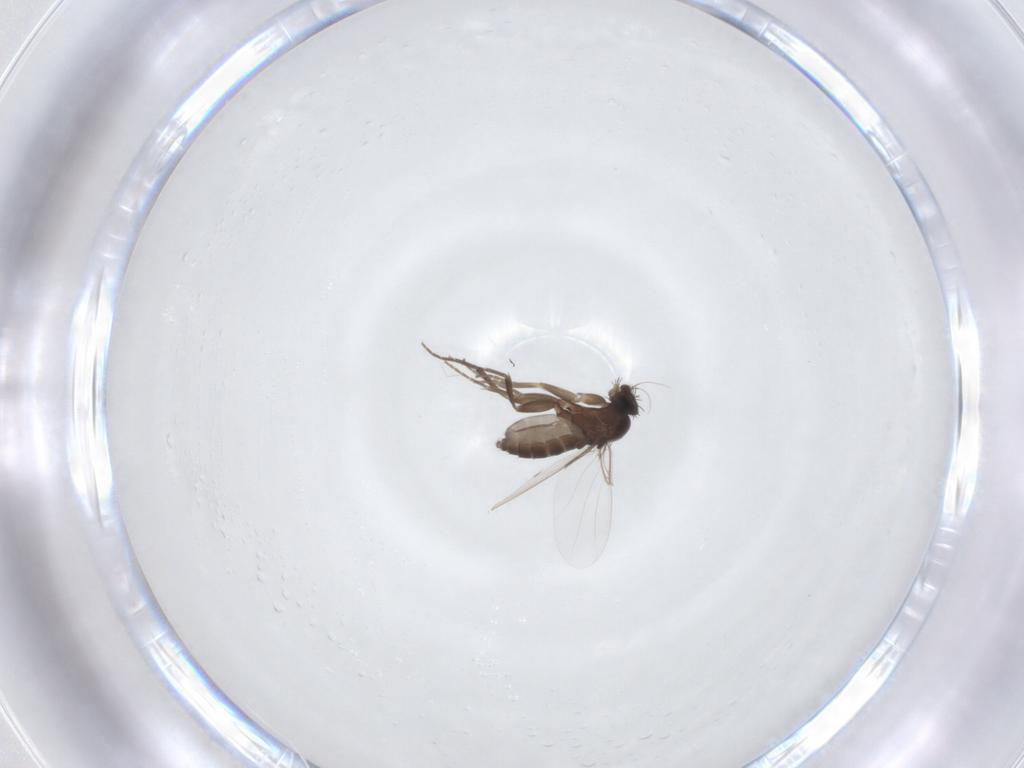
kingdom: Animalia
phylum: Arthropoda
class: Insecta
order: Diptera
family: Phoridae
